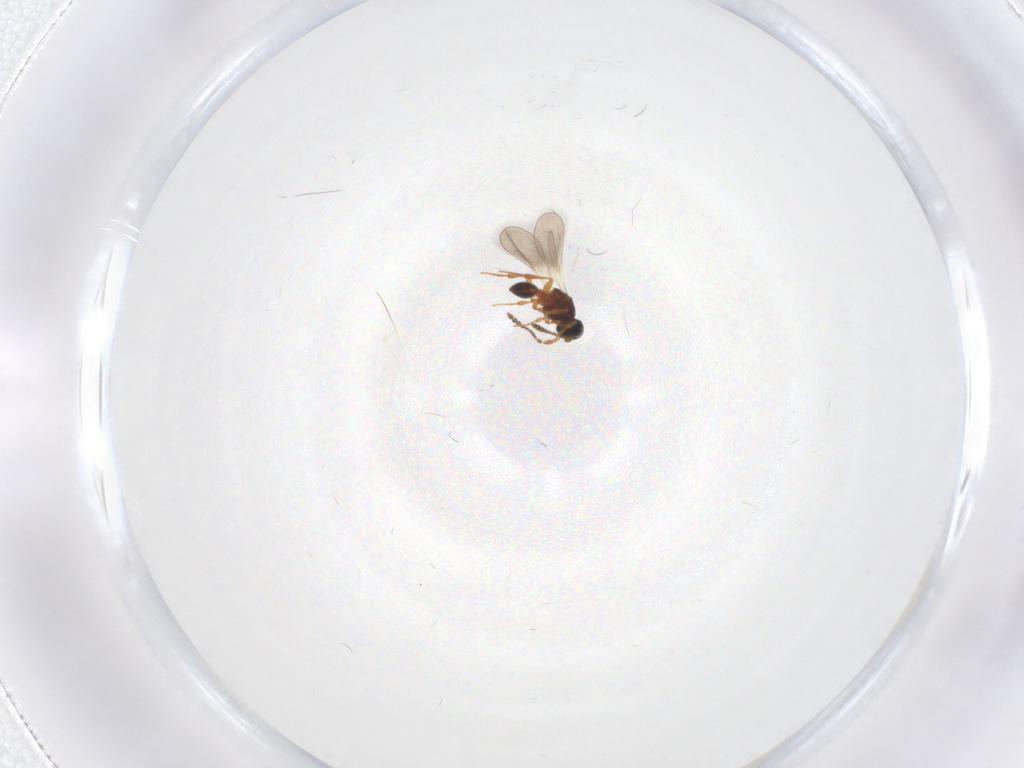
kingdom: Animalia
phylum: Arthropoda
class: Insecta
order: Hymenoptera
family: Platygastridae
